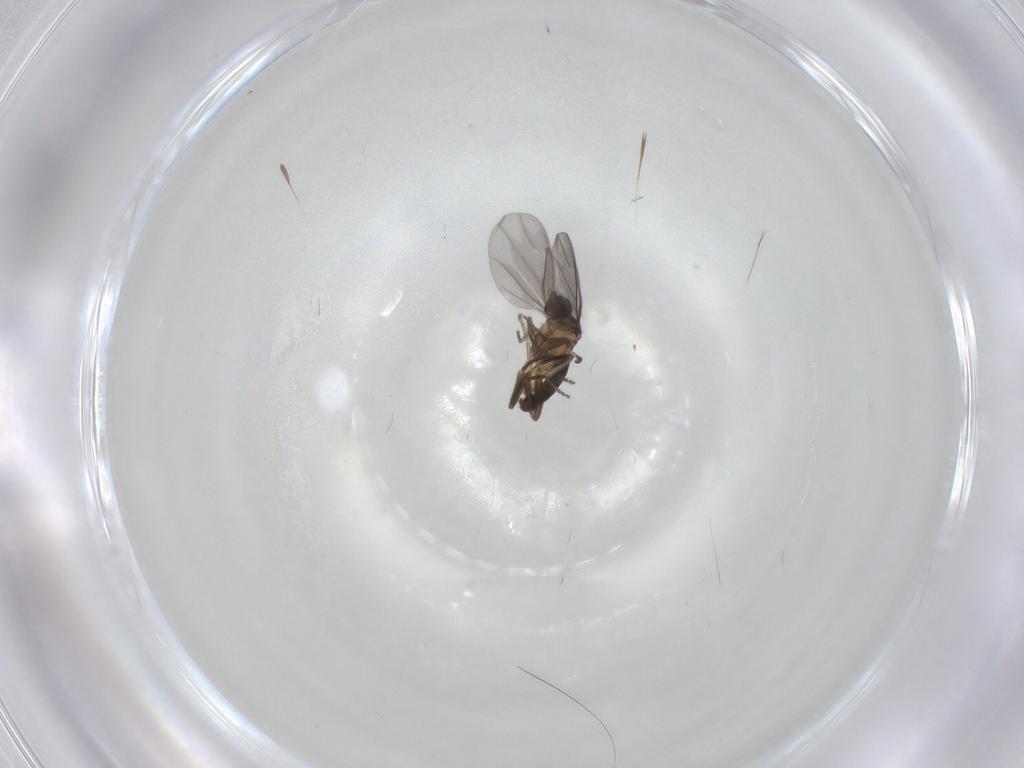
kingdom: Animalia
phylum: Arthropoda
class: Insecta
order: Diptera
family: Phoridae
